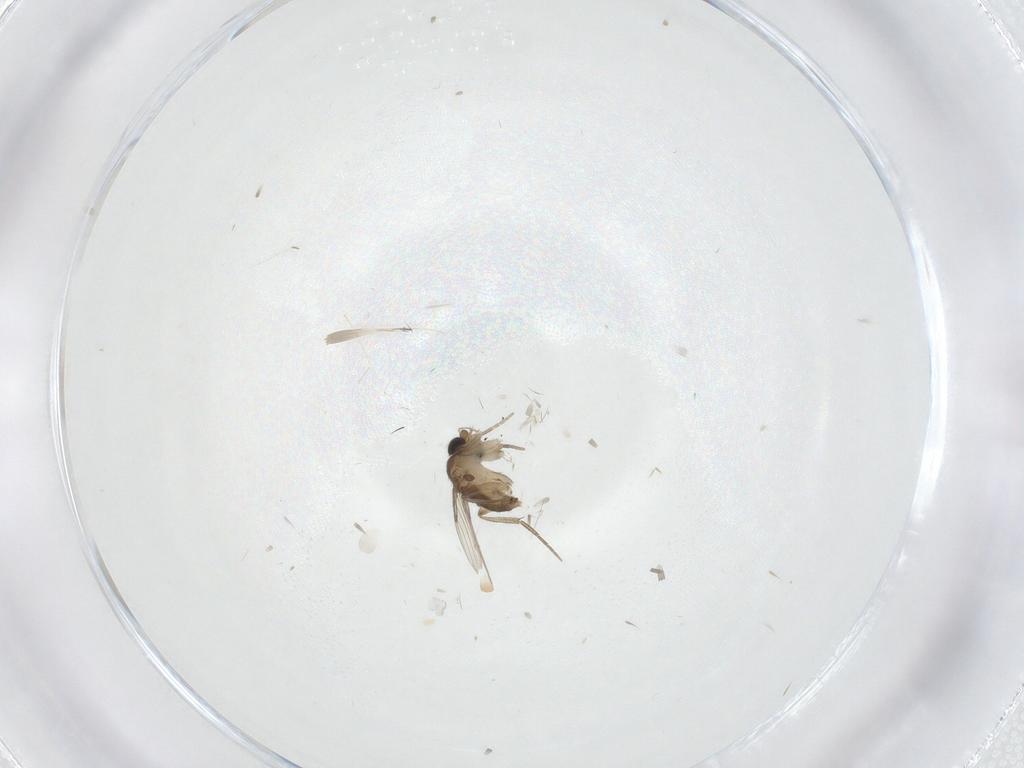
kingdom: Animalia
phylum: Arthropoda
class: Insecta
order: Diptera
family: Phoridae
